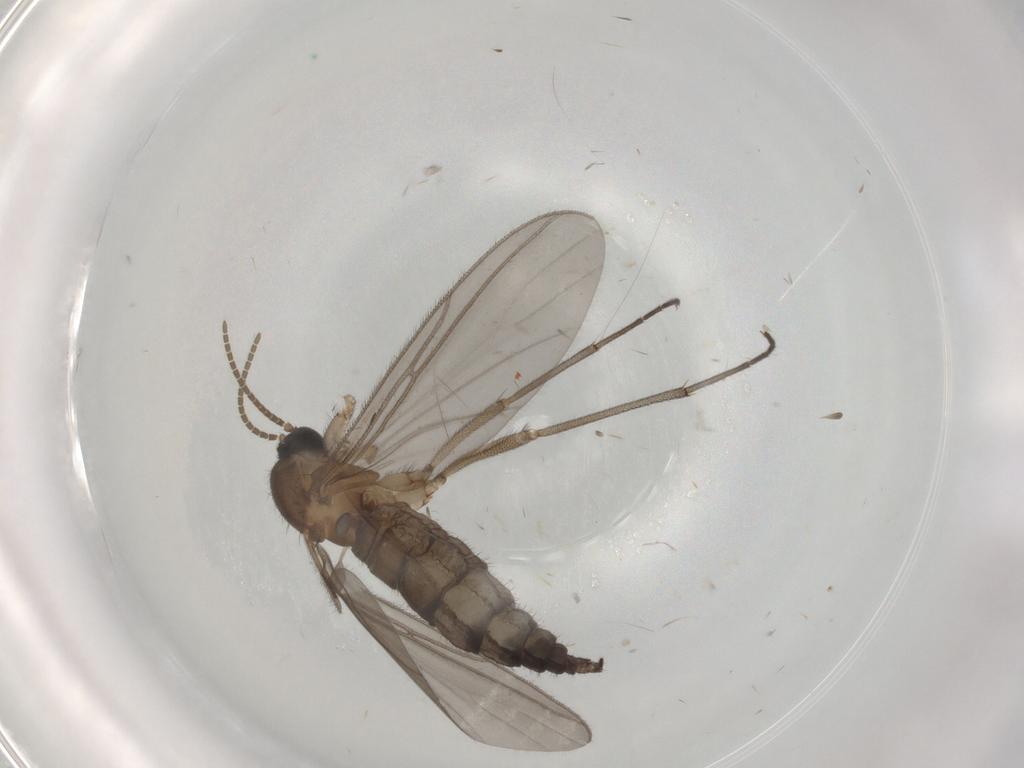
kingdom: Animalia
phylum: Arthropoda
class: Insecta
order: Diptera
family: Psychodidae
